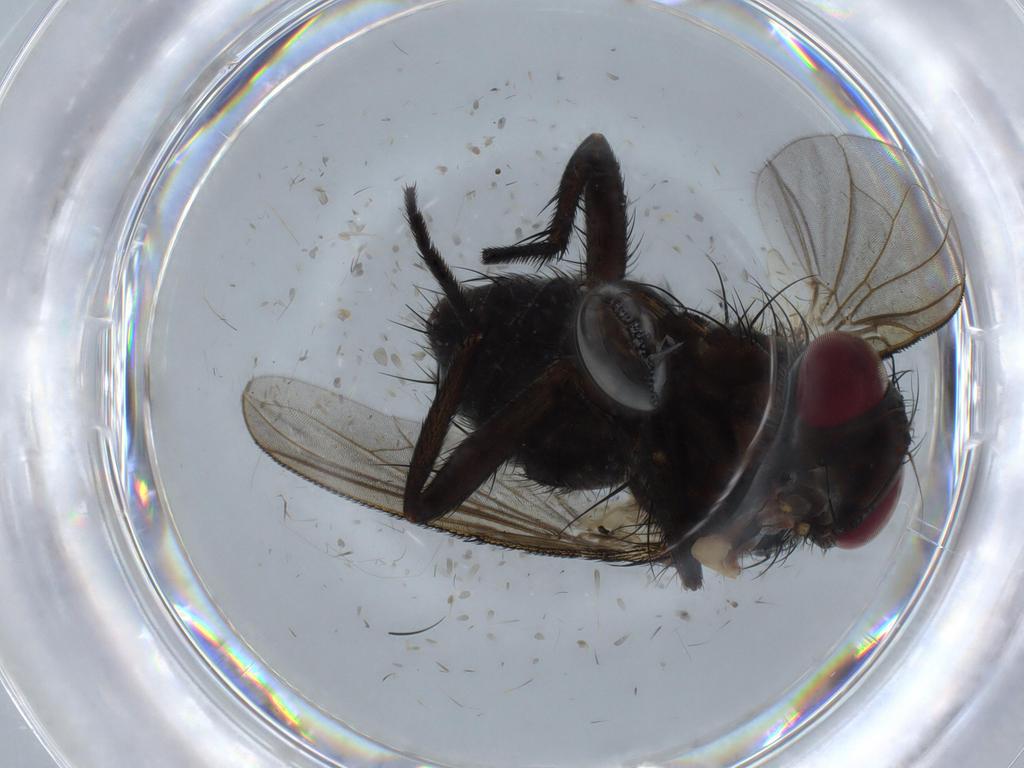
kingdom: Animalia
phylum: Arthropoda
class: Insecta
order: Diptera
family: Tachinidae
